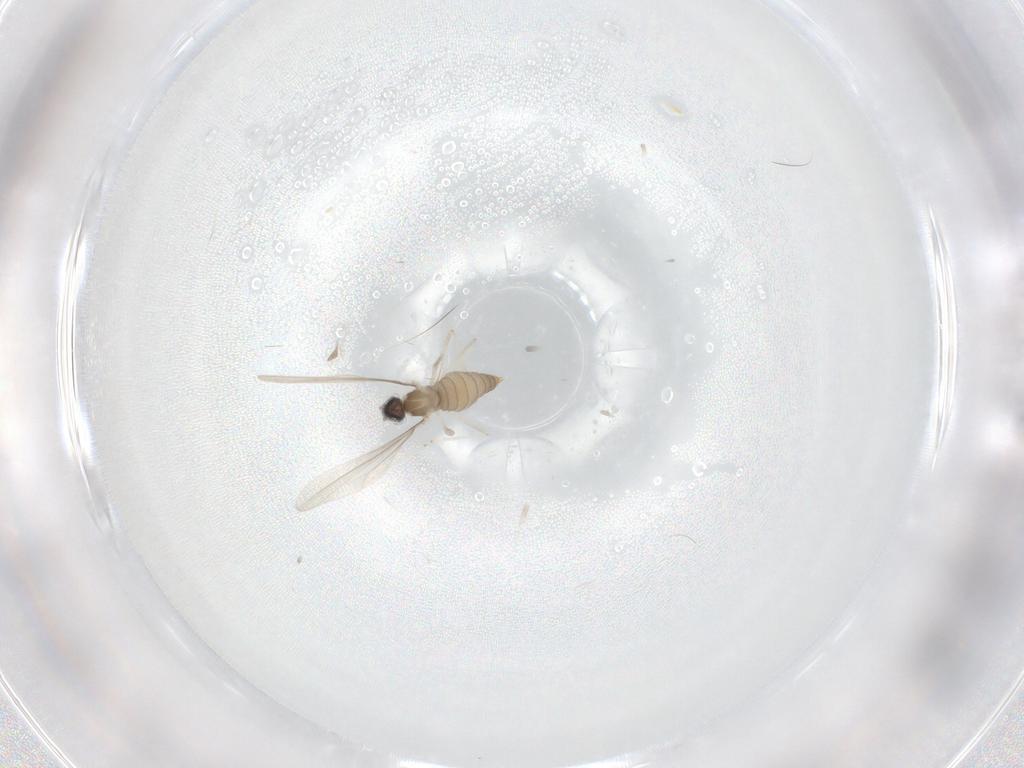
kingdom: Animalia
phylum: Arthropoda
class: Insecta
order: Diptera
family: Cecidomyiidae
